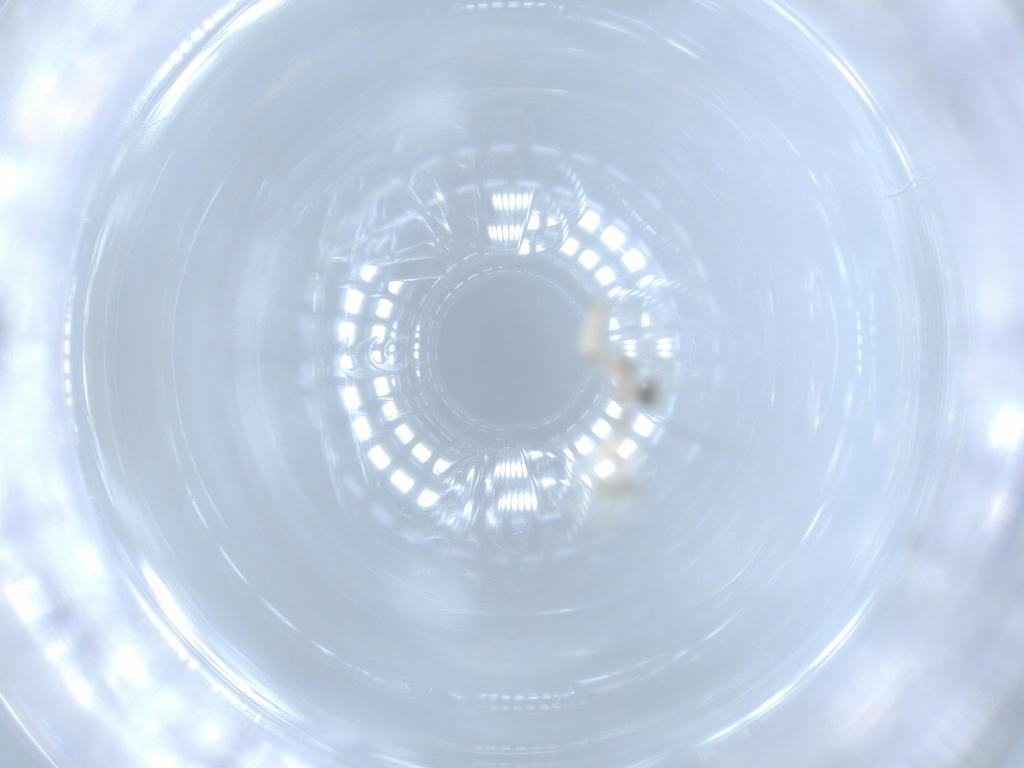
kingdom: Animalia
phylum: Arthropoda
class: Insecta
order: Diptera
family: Cecidomyiidae
